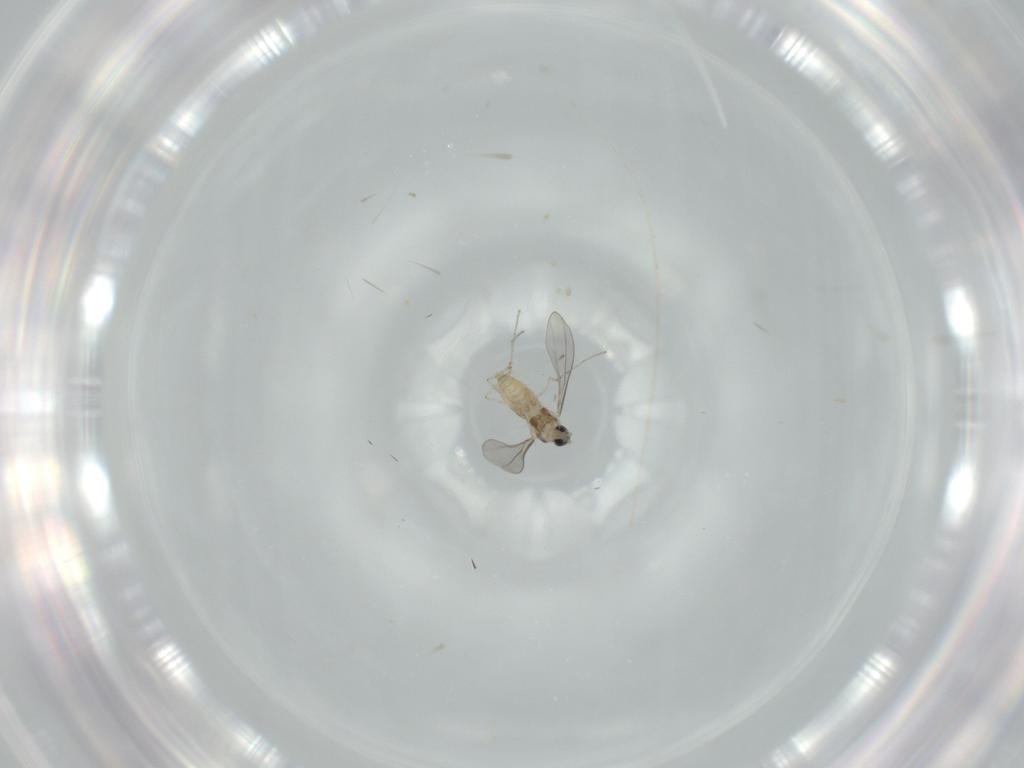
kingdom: Animalia
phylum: Arthropoda
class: Insecta
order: Diptera
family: Cecidomyiidae
